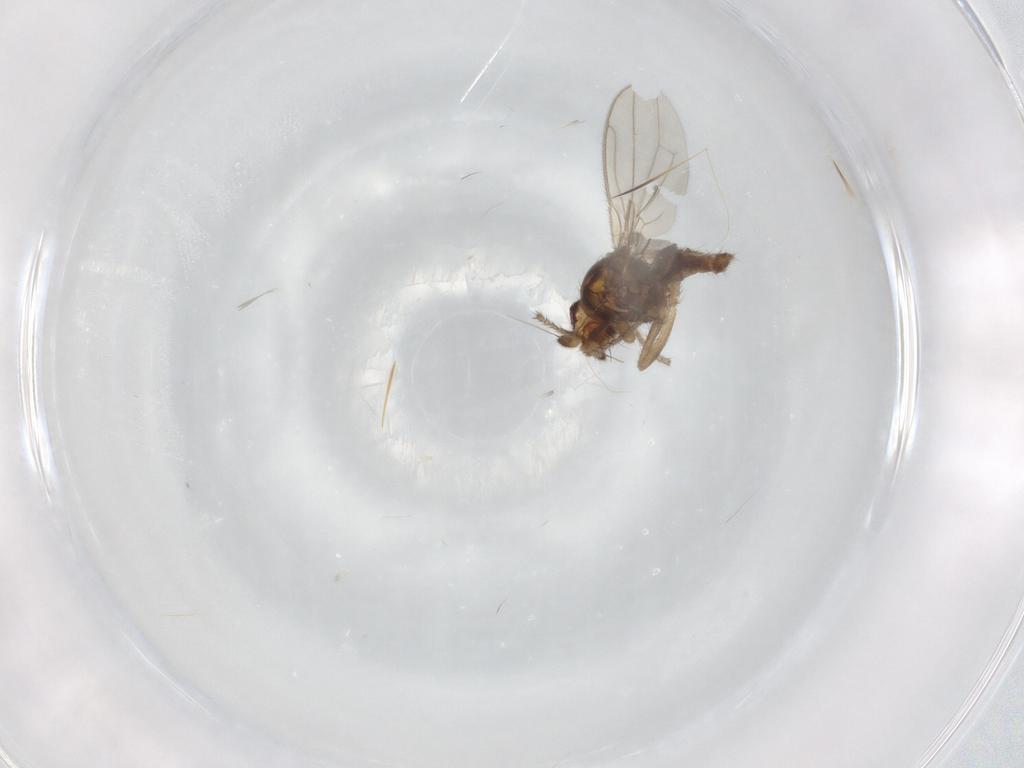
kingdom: Animalia
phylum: Arthropoda
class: Insecta
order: Diptera
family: Sphaeroceridae
